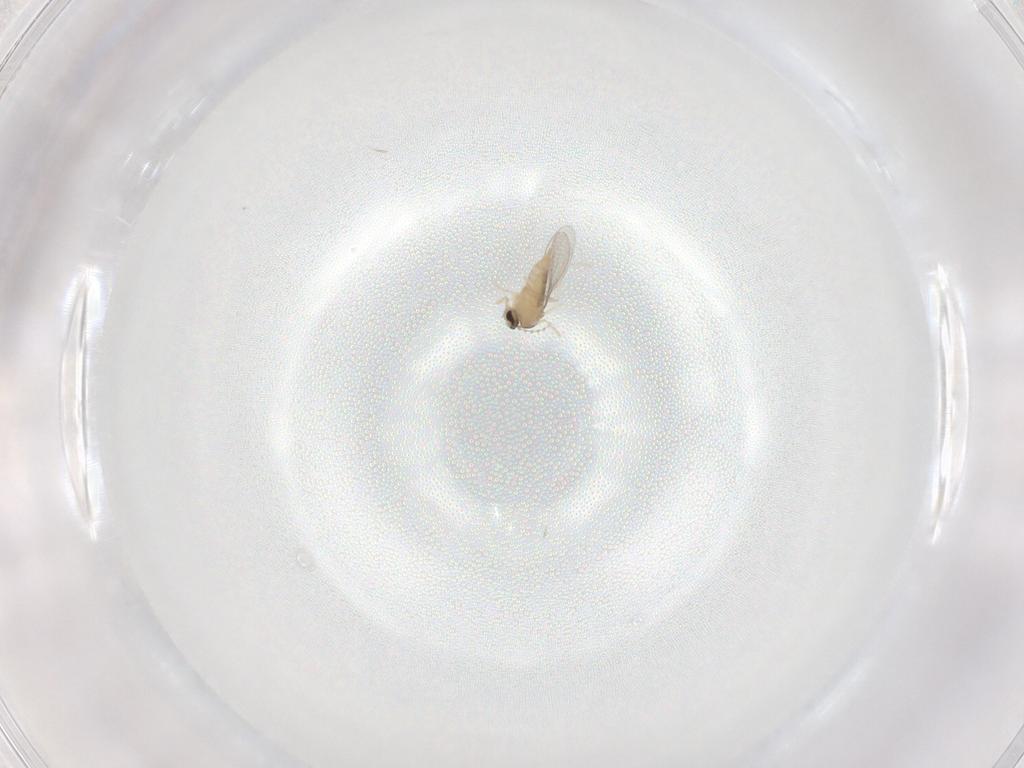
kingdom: Animalia
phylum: Arthropoda
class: Insecta
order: Diptera
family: Cecidomyiidae
